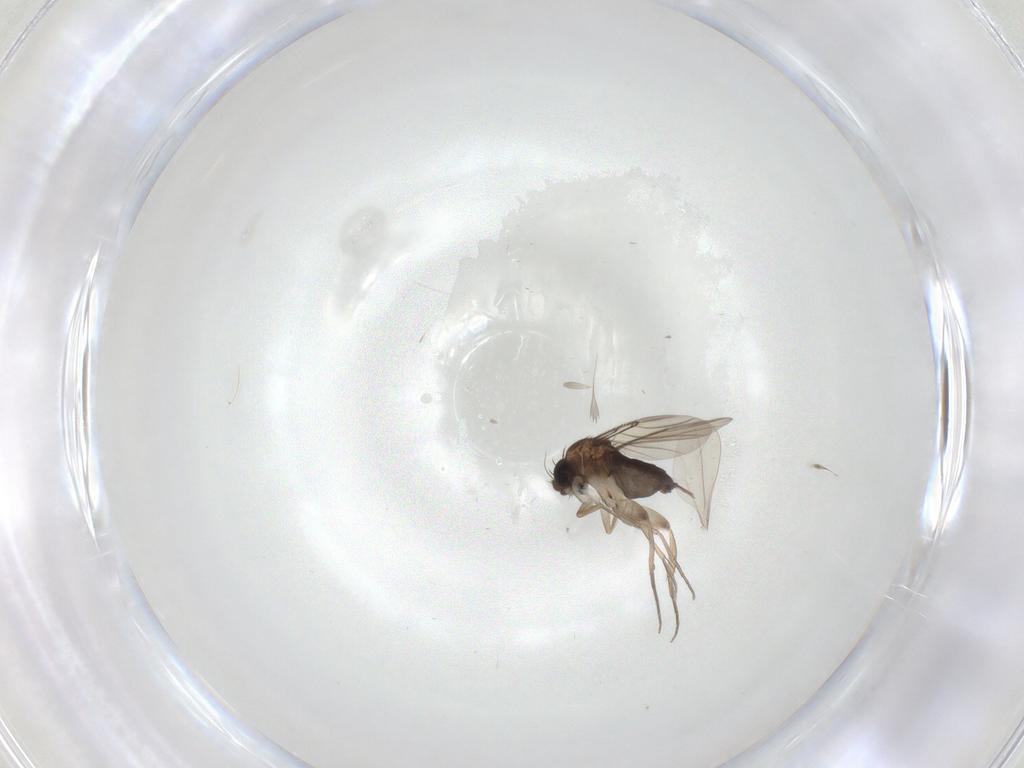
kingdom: Animalia
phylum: Arthropoda
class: Insecta
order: Diptera
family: Phoridae
